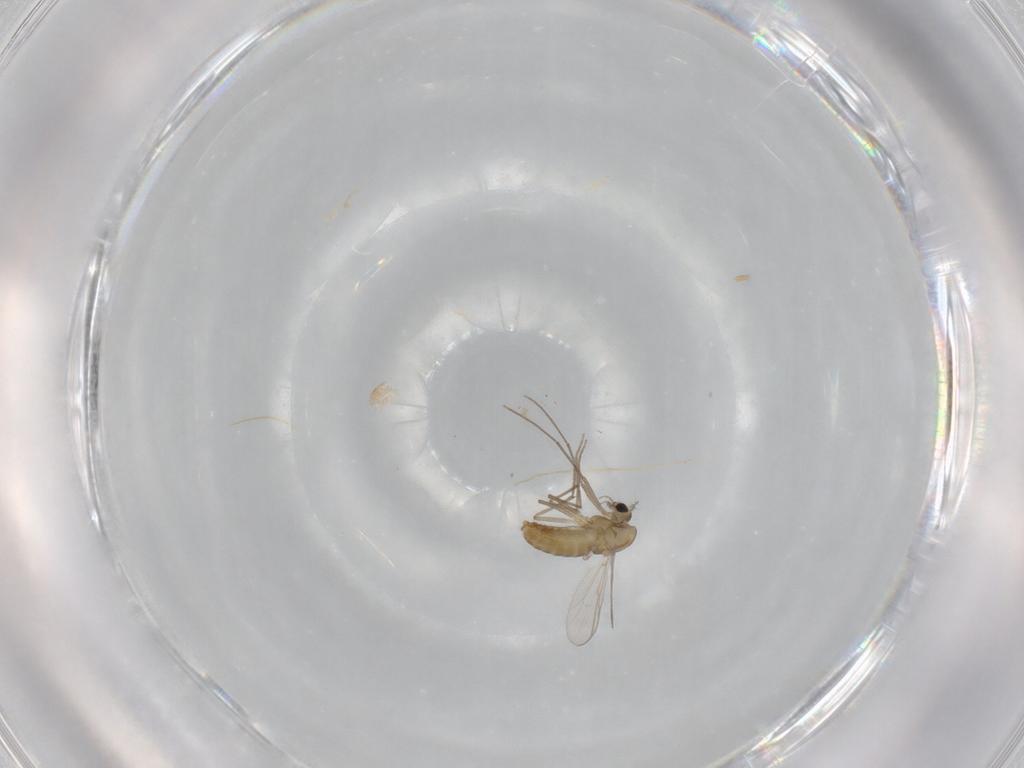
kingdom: Animalia
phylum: Arthropoda
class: Insecta
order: Diptera
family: Chironomidae
